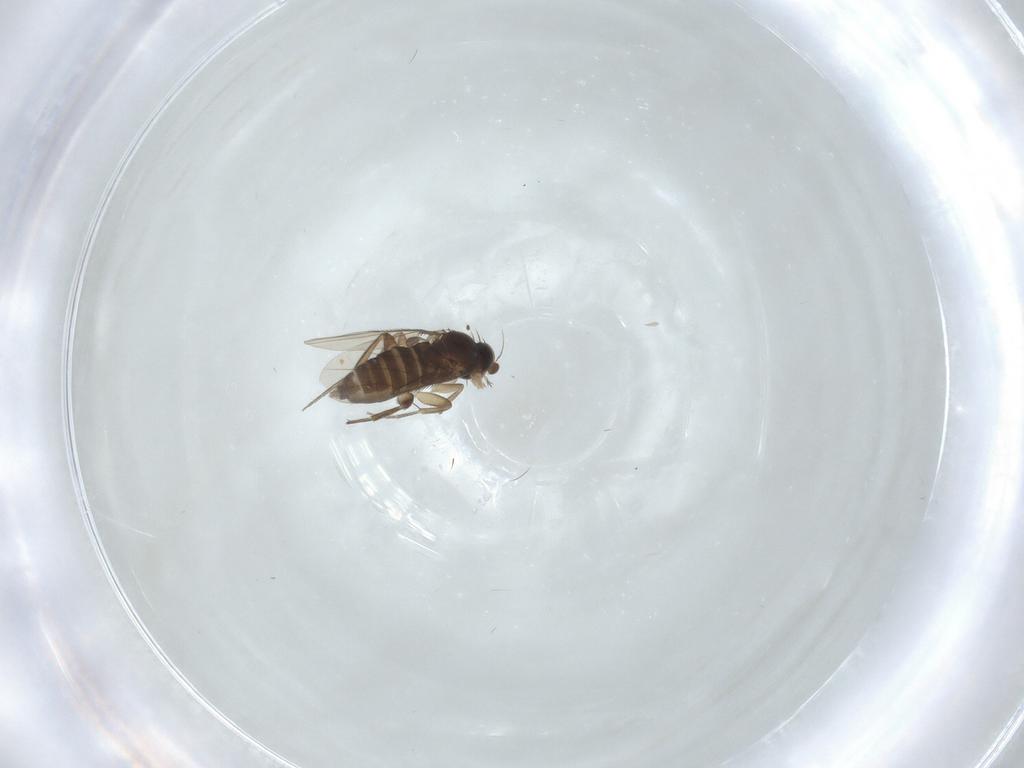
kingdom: Animalia
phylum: Arthropoda
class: Insecta
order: Diptera
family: Phoridae
